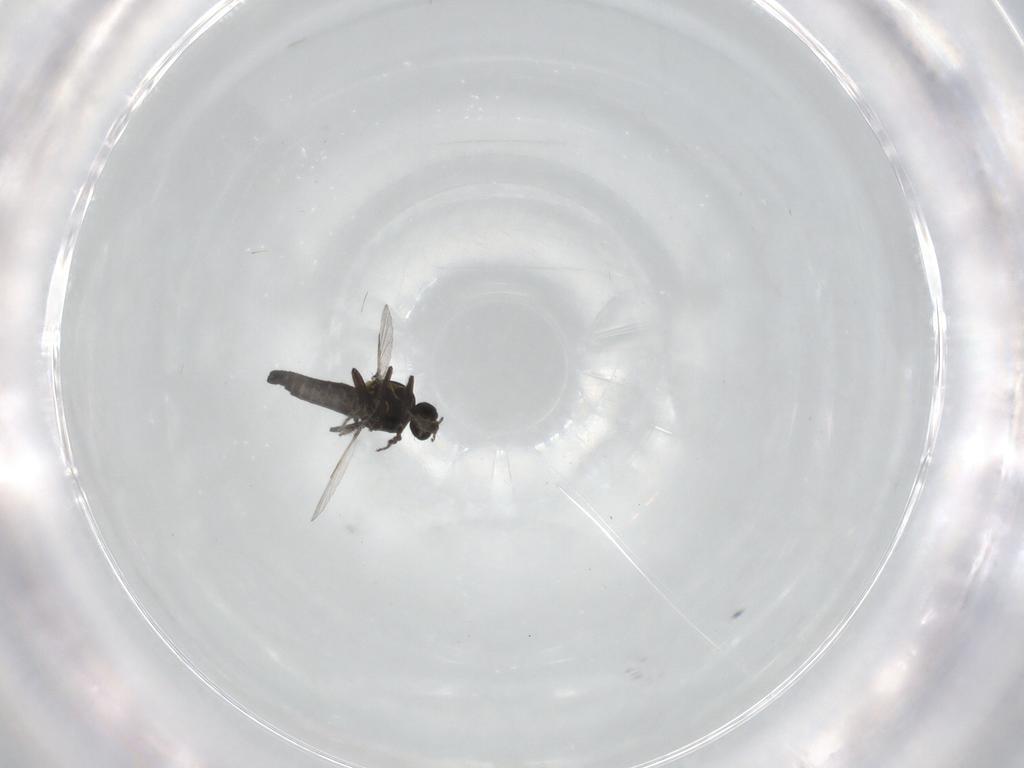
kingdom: Animalia
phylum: Arthropoda
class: Insecta
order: Diptera
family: Ceratopogonidae
